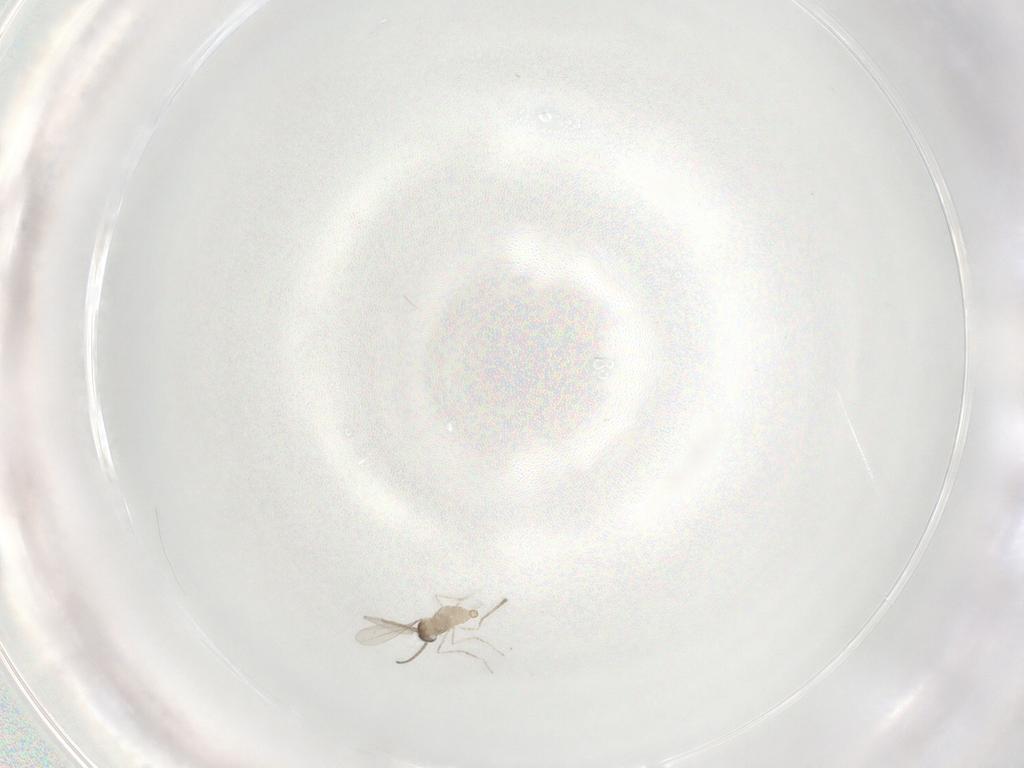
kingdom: Animalia
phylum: Arthropoda
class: Insecta
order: Diptera
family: Cecidomyiidae
